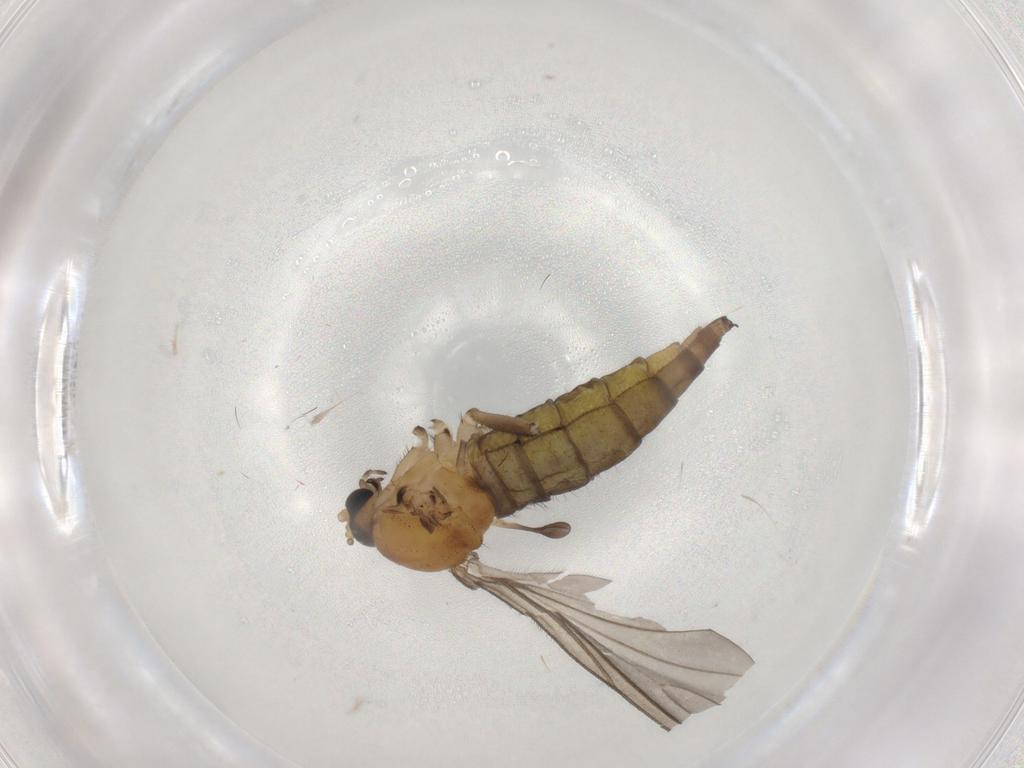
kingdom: Animalia
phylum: Arthropoda
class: Insecta
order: Diptera
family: Sciaridae
